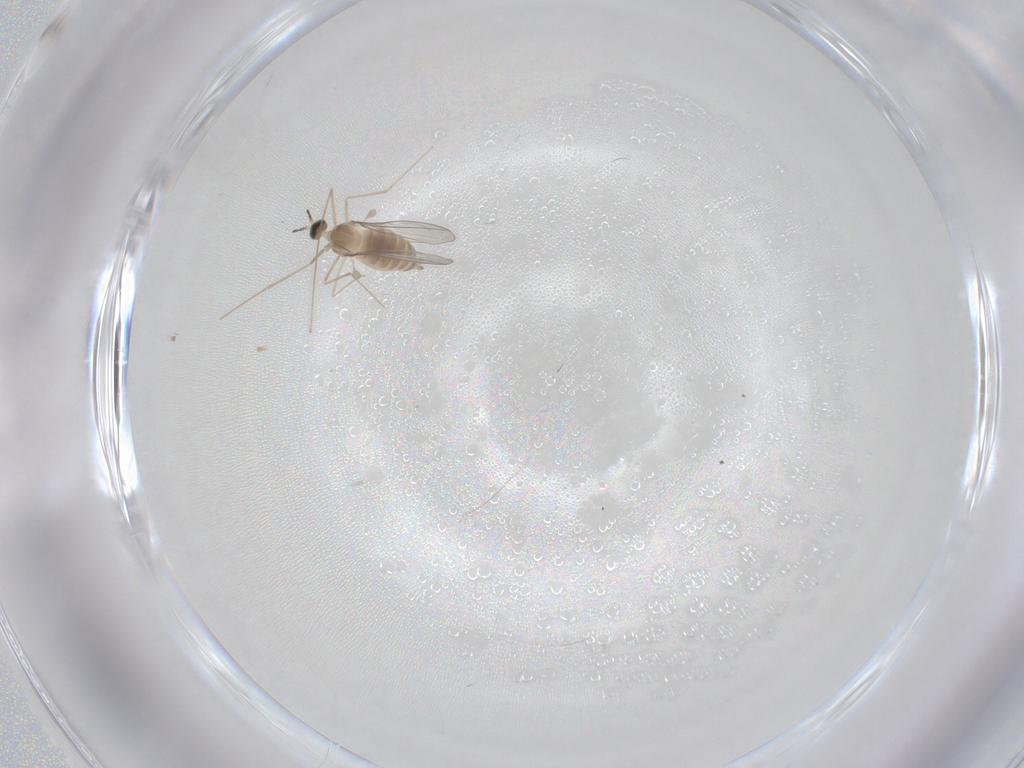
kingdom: Animalia
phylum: Arthropoda
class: Insecta
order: Diptera
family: Cecidomyiidae
